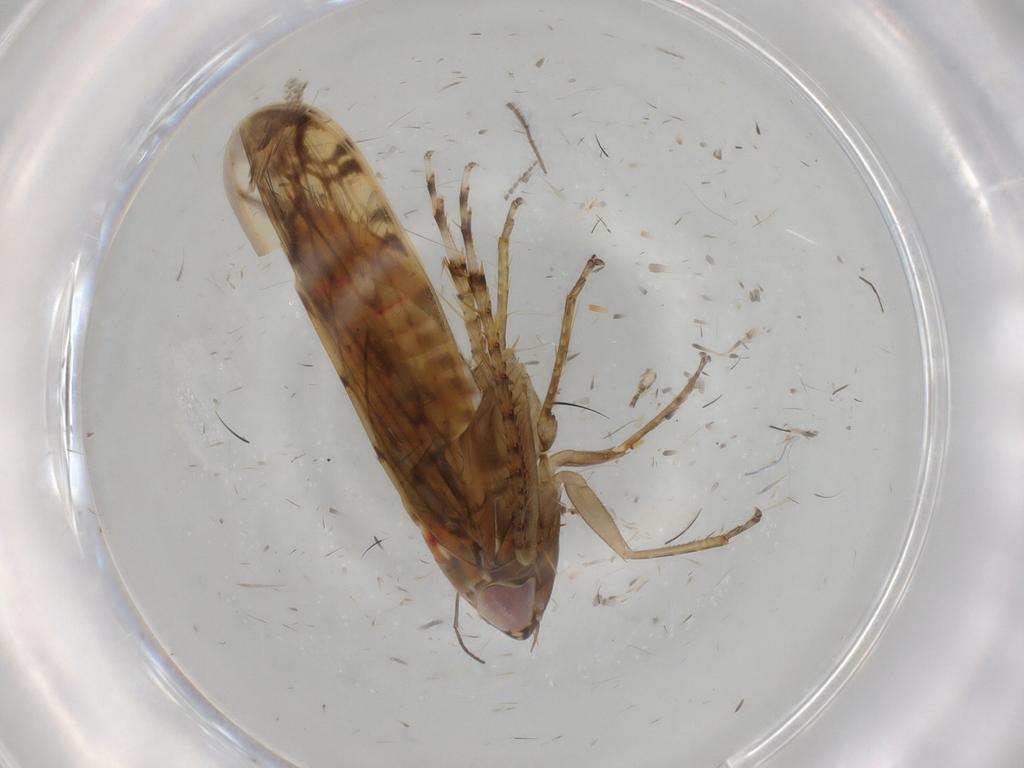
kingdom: Animalia
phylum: Arthropoda
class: Insecta
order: Hemiptera
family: Cicadellidae
